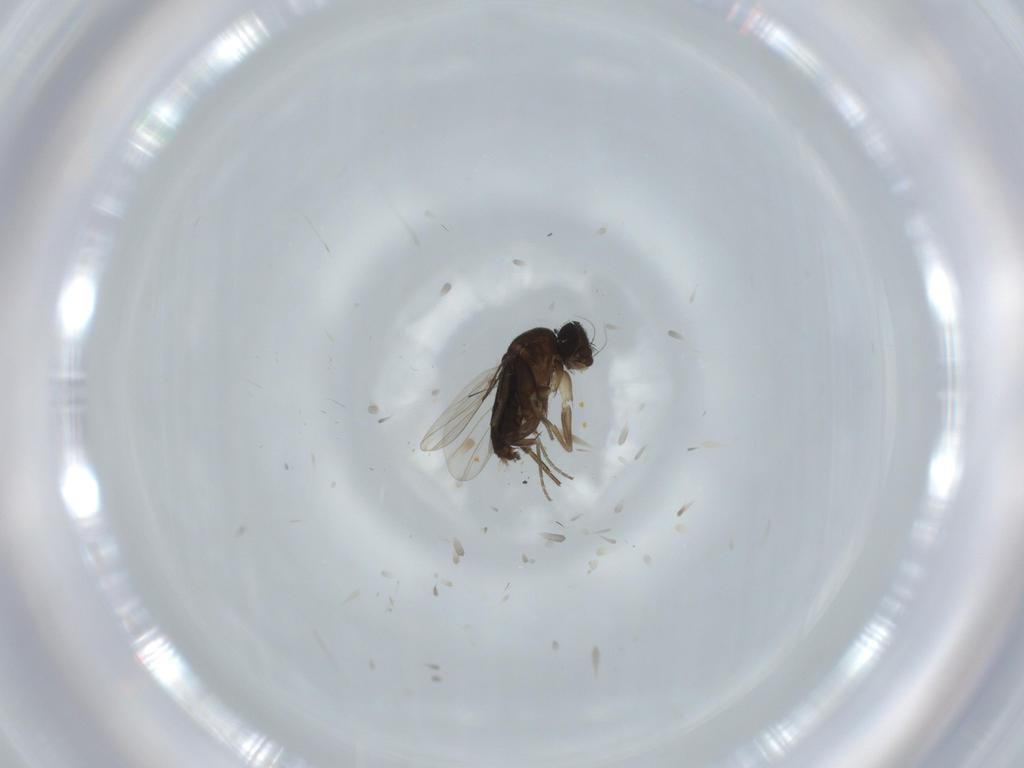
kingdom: Animalia
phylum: Arthropoda
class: Insecta
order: Diptera
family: Phoridae
